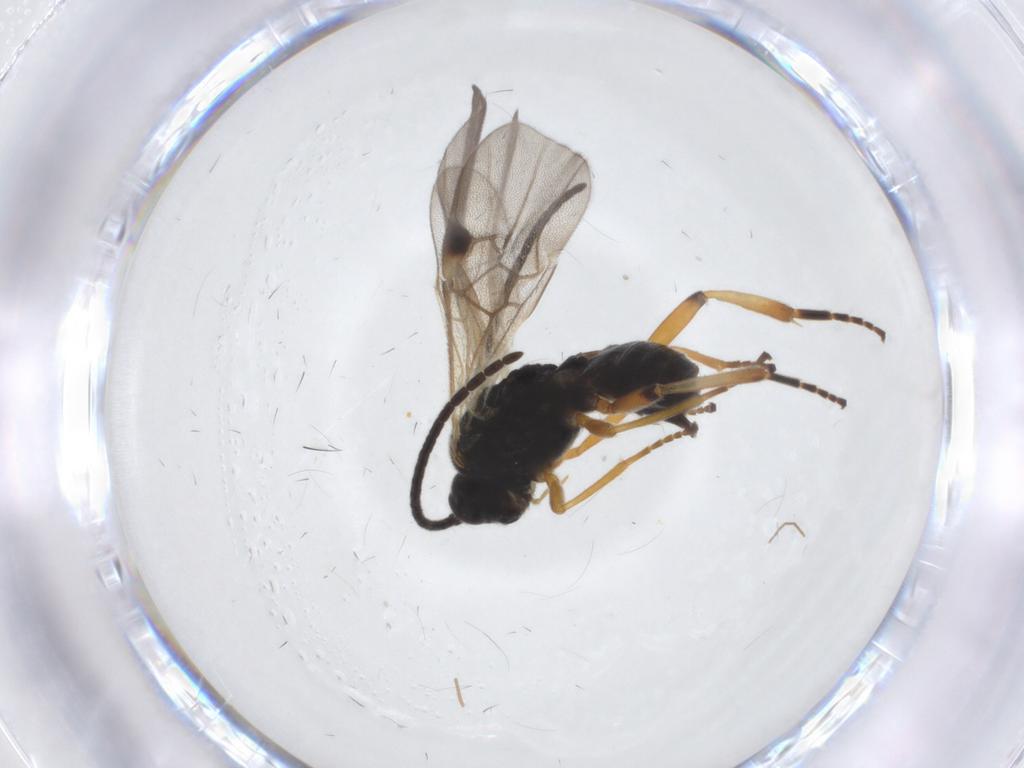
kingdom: Animalia
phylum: Arthropoda
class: Insecta
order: Hymenoptera
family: Braconidae
